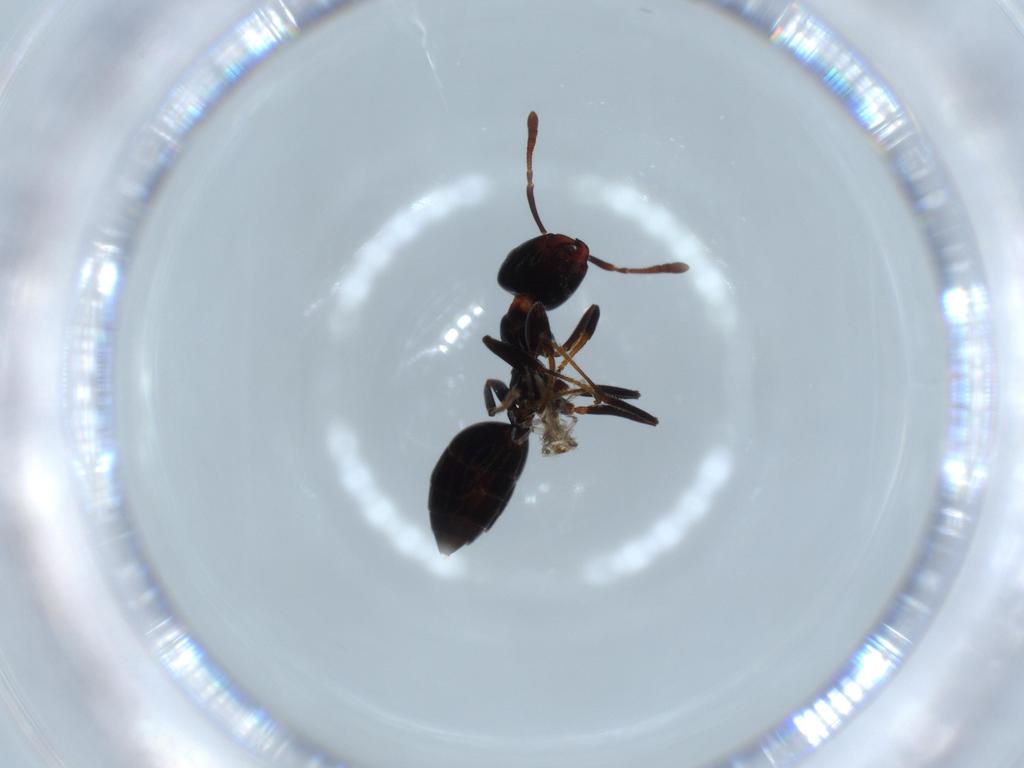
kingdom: Animalia
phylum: Arthropoda
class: Insecta
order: Hymenoptera
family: Formicidae
